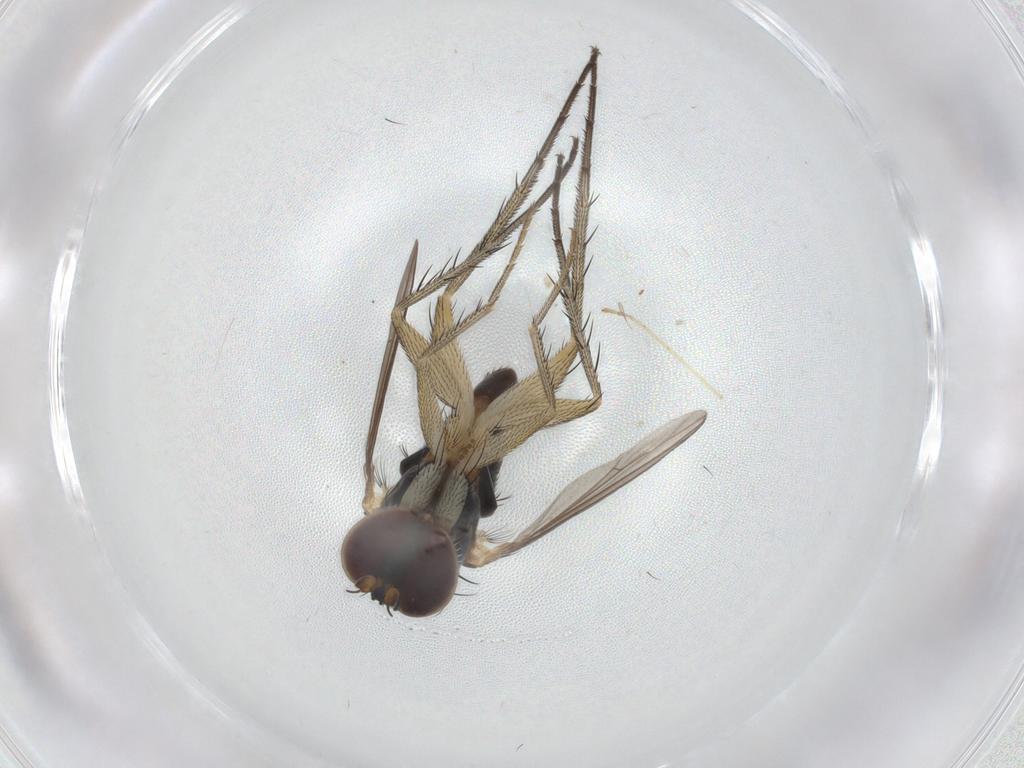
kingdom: Animalia
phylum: Arthropoda
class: Insecta
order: Diptera
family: Dolichopodidae
